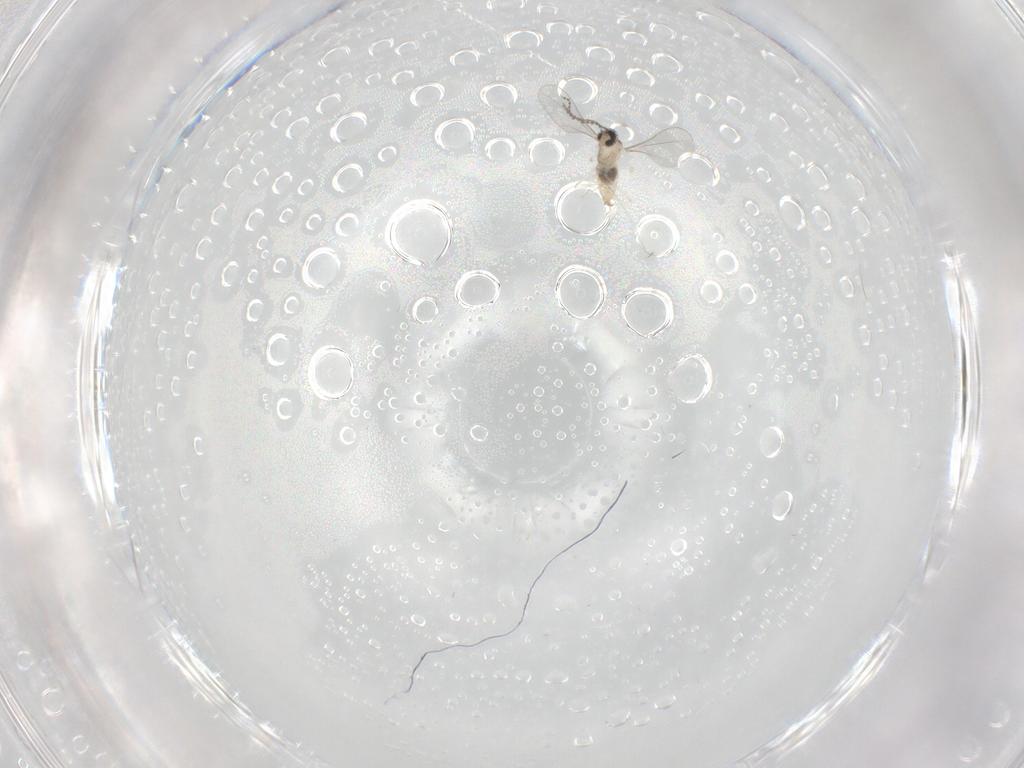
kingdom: Animalia
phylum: Arthropoda
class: Insecta
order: Diptera
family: Cecidomyiidae
